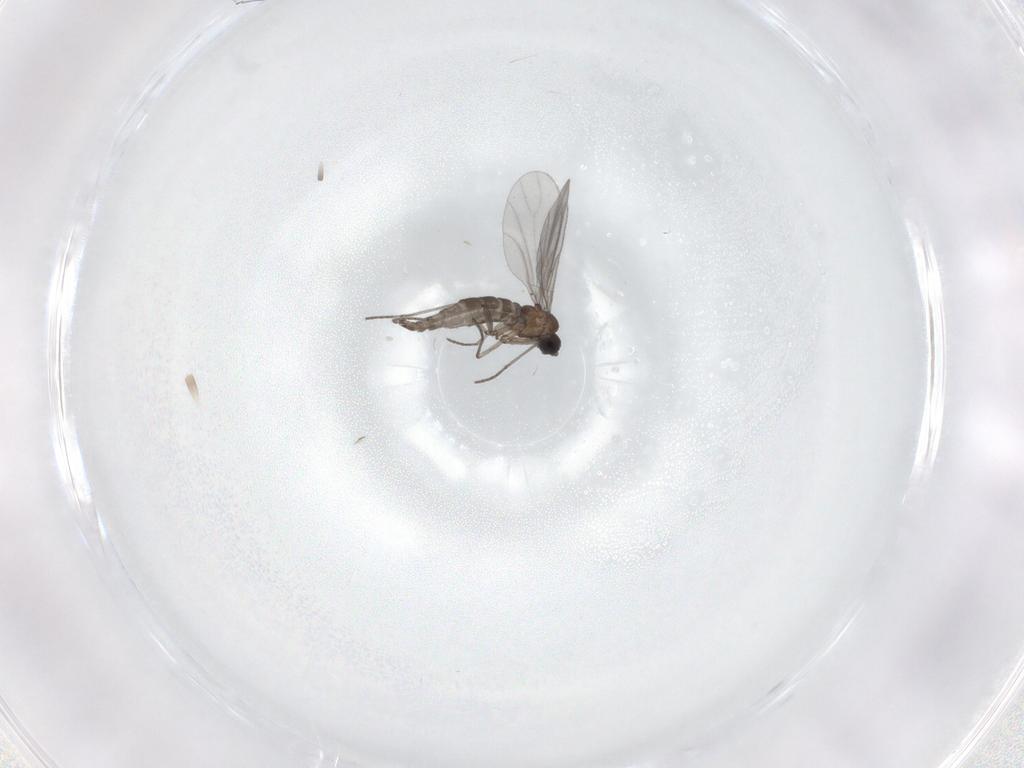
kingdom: Animalia
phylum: Arthropoda
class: Insecta
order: Diptera
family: Sciaridae
